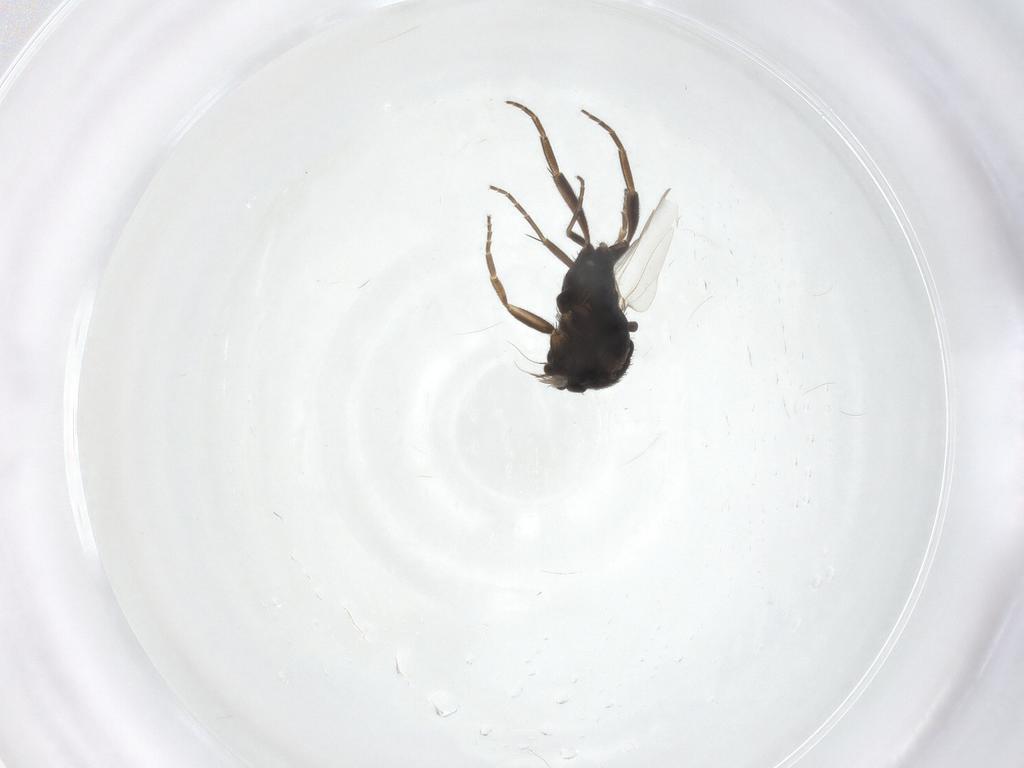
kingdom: Animalia
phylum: Arthropoda
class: Insecta
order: Diptera
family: Phoridae
